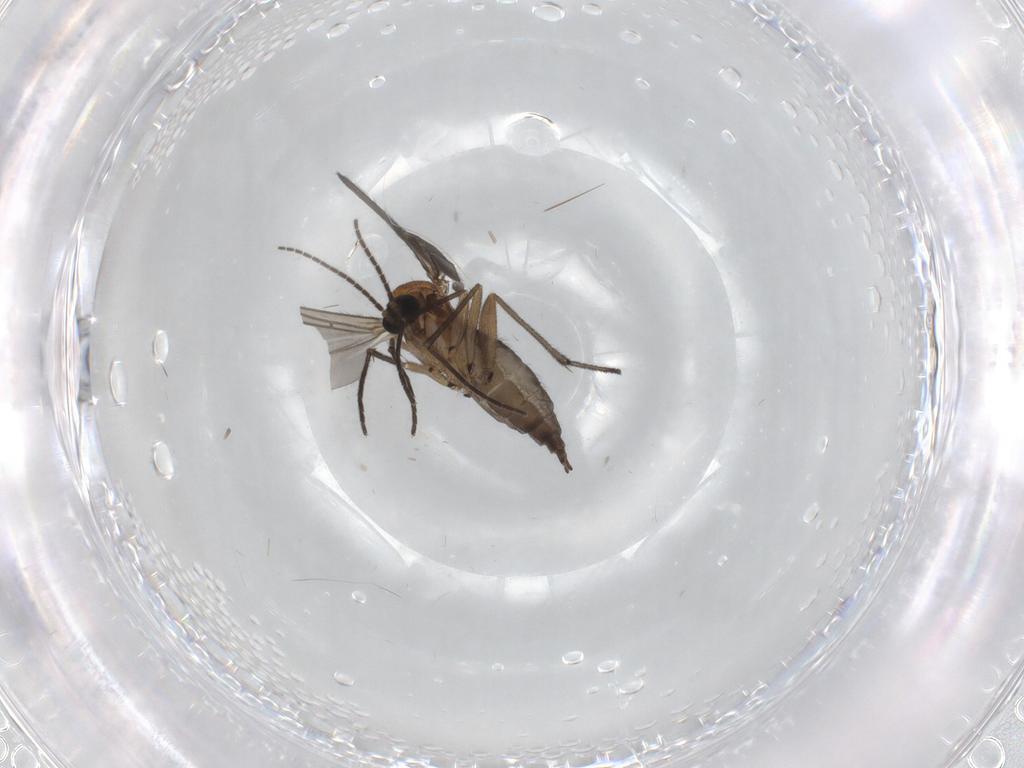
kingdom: Animalia
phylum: Arthropoda
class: Insecta
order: Diptera
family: Sciaridae
